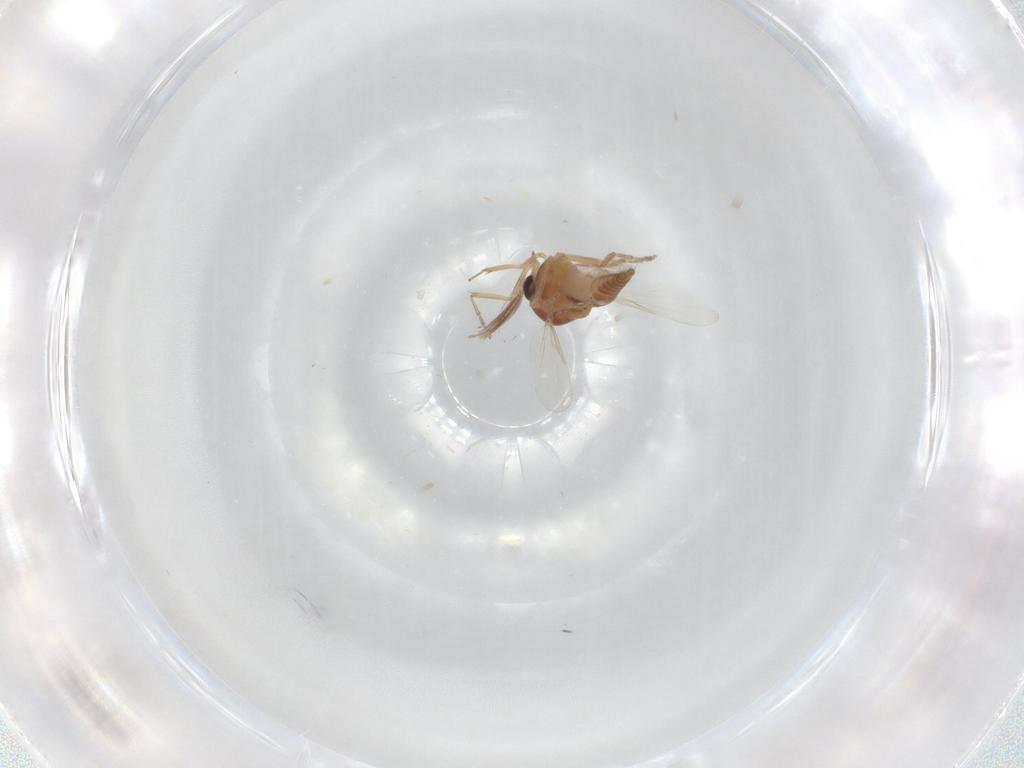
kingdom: Animalia
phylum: Arthropoda
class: Insecta
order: Diptera
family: Ceratopogonidae
